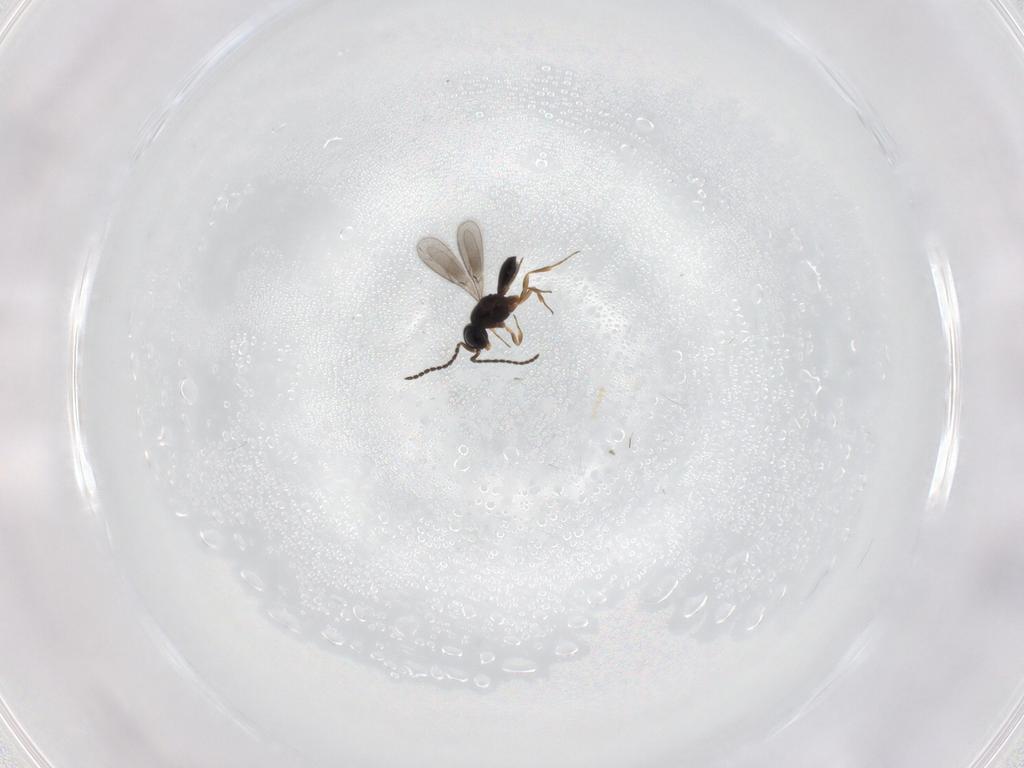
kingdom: Animalia
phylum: Arthropoda
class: Insecta
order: Hymenoptera
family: Scelionidae
